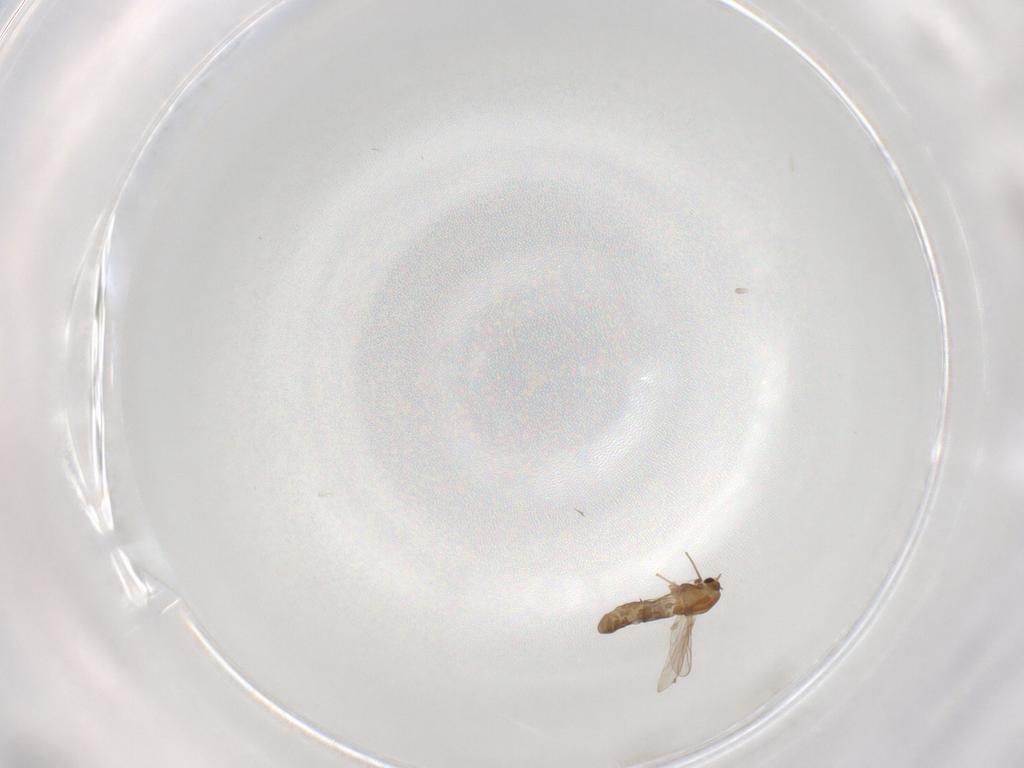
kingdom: Animalia
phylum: Arthropoda
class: Insecta
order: Diptera
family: Chironomidae
